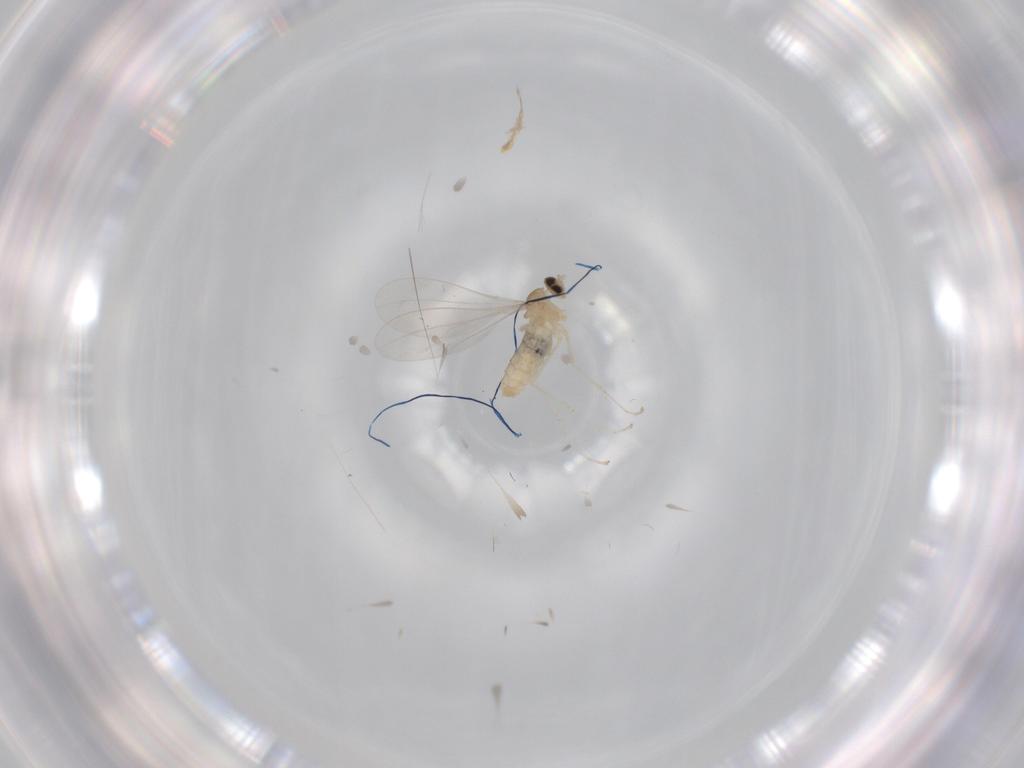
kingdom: Animalia
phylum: Arthropoda
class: Insecta
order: Diptera
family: Cecidomyiidae
